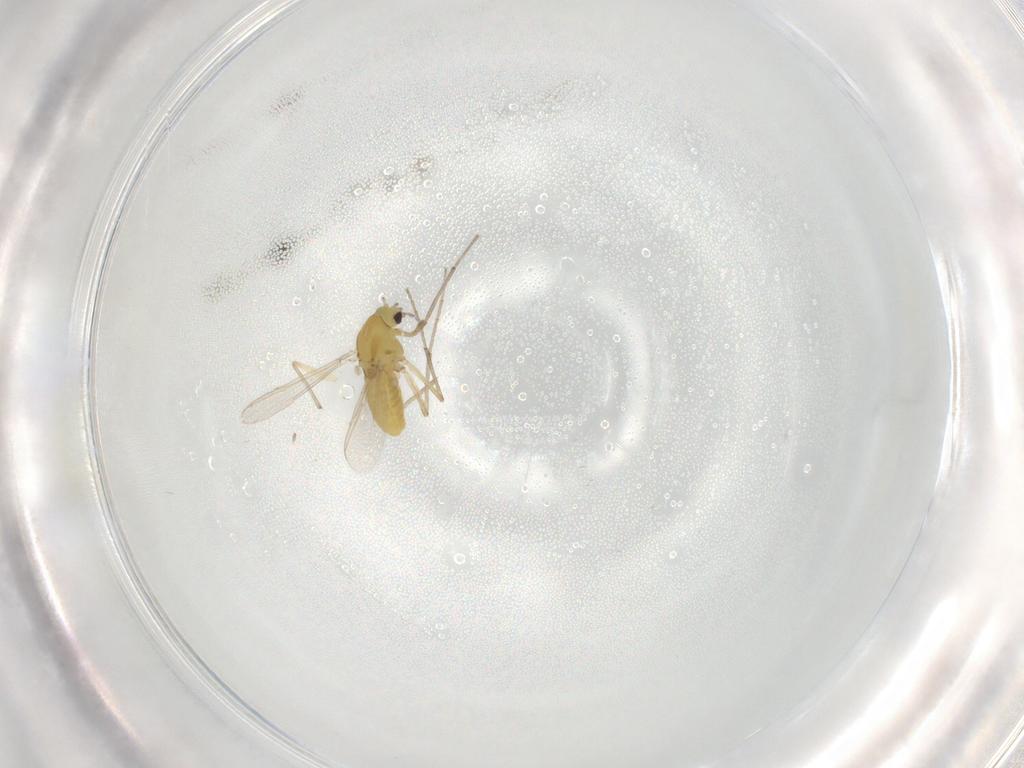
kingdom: Animalia
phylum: Arthropoda
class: Insecta
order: Diptera
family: Chironomidae
